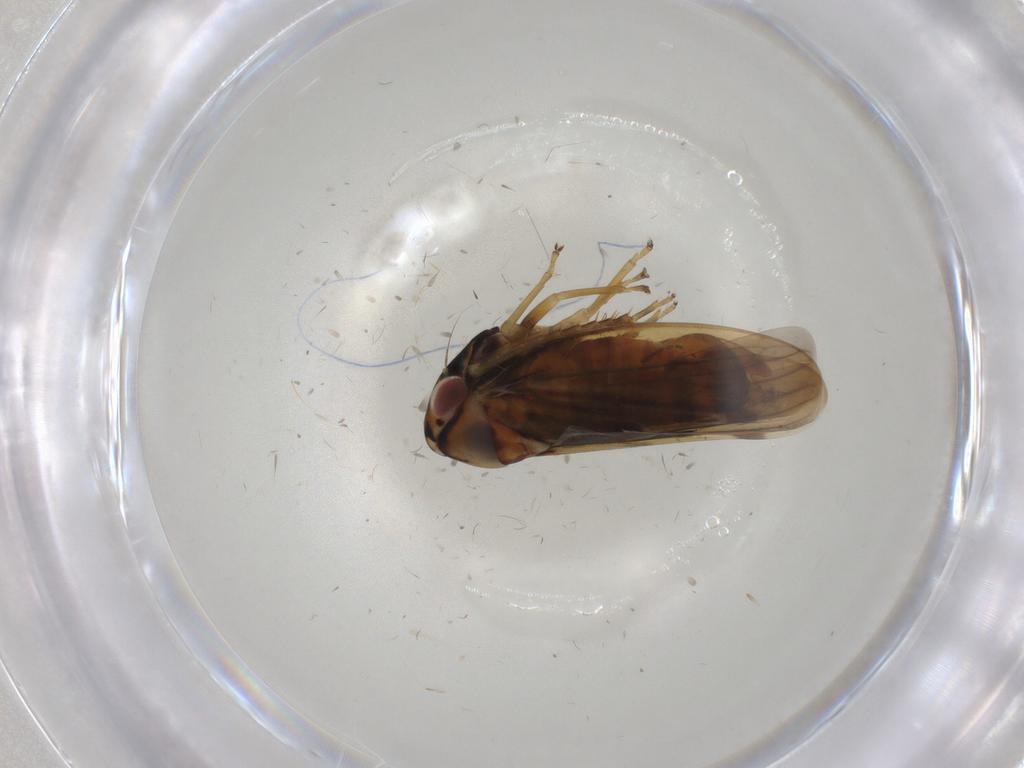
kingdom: Animalia
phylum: Arthropoda
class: Insecta
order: Hemiptera
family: Cicadellidae
